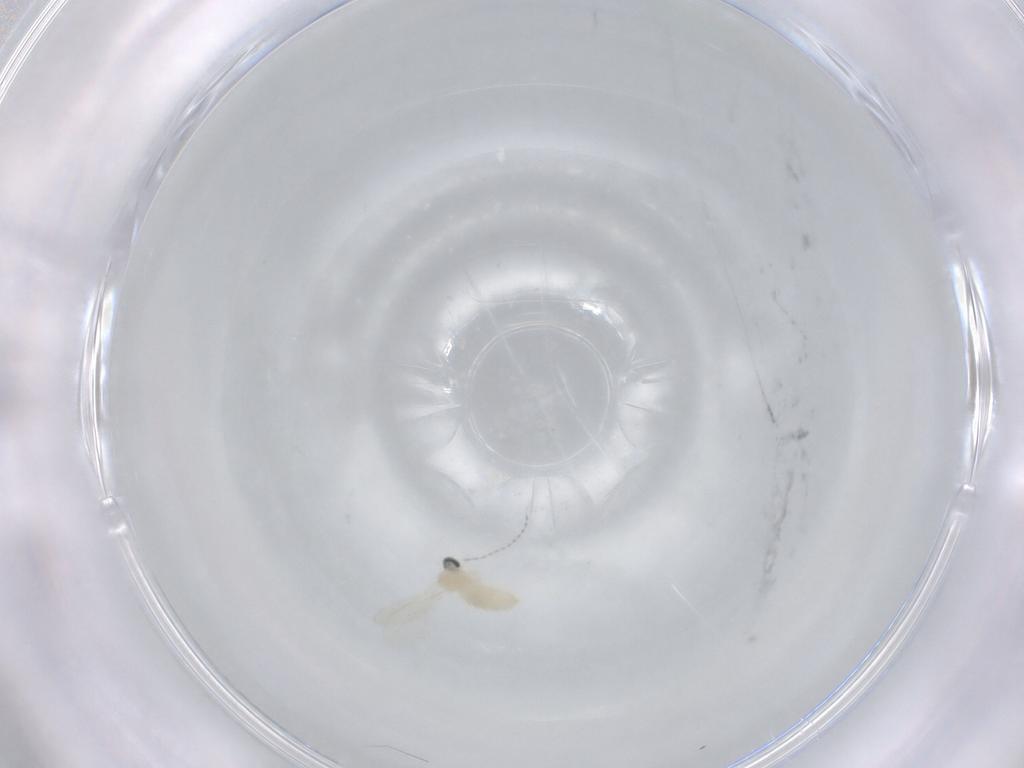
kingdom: Animalia
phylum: Arthropoda
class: Insecta
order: Diptera
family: Cecidomyiidae
